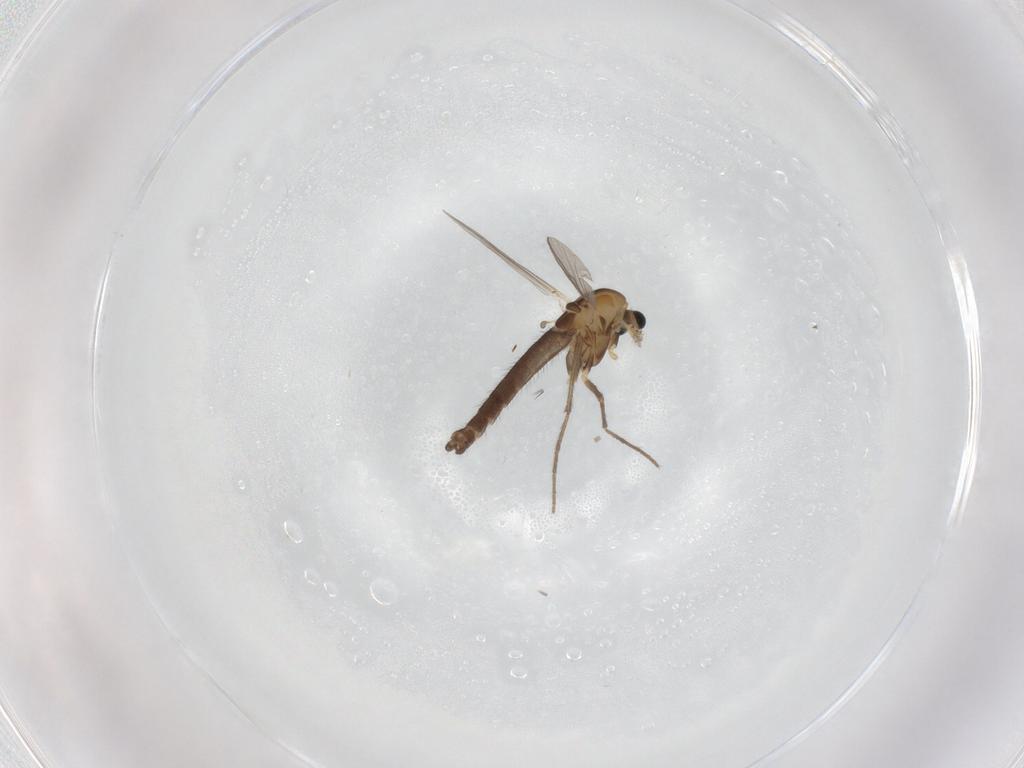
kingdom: Animalia
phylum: Arthropoda
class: Insecta
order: Diptera
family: Chironomidae
